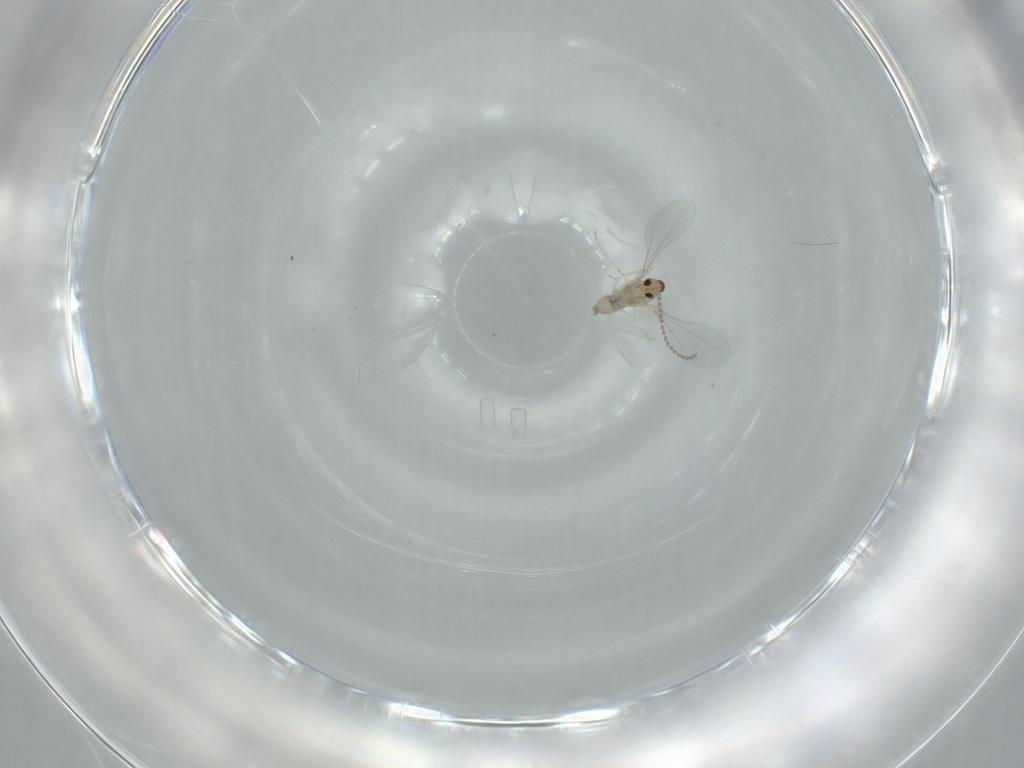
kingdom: Animalia
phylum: Arthropoda
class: Insecta
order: Diptera
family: Cecidomyiidae
